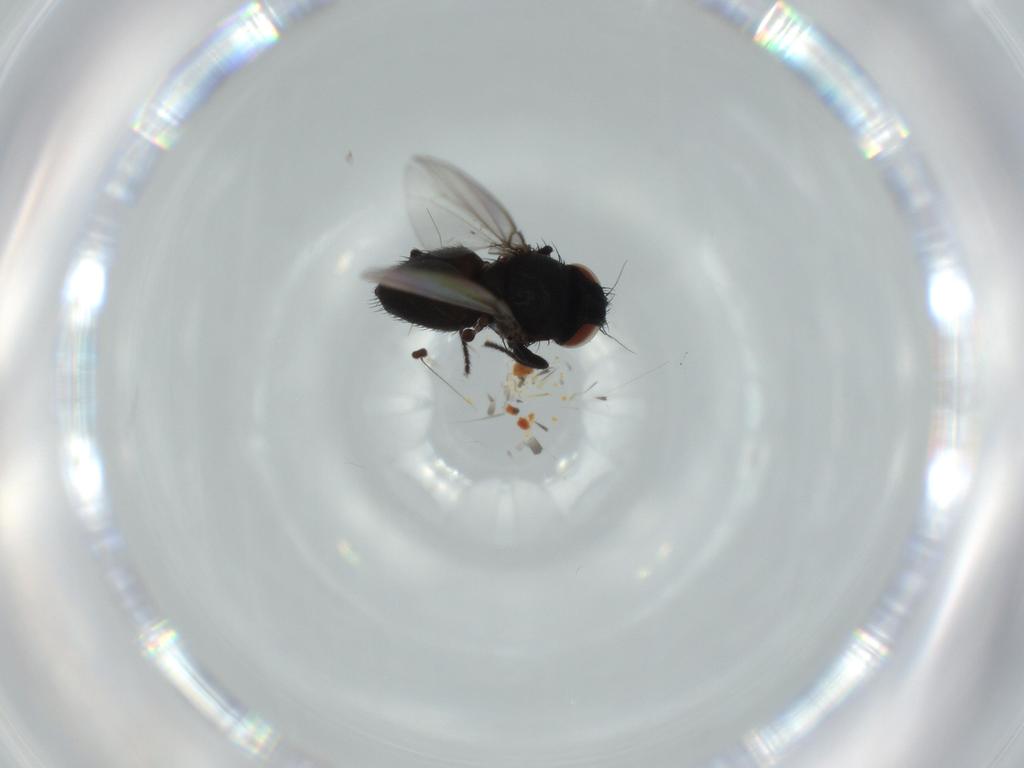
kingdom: Animalia
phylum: Arthropoda
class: Insecta
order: Diptera
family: Milichiidae
